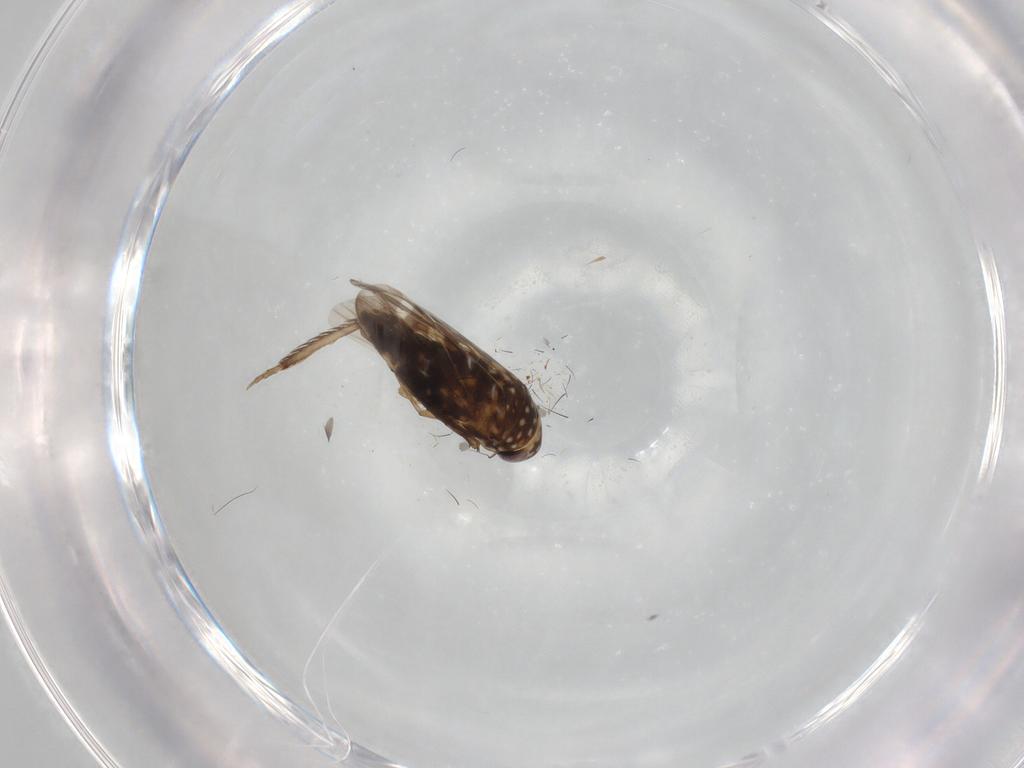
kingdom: Animalia
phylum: Arthropoda
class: Insecta
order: Hemiptera
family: Cicadellidae
